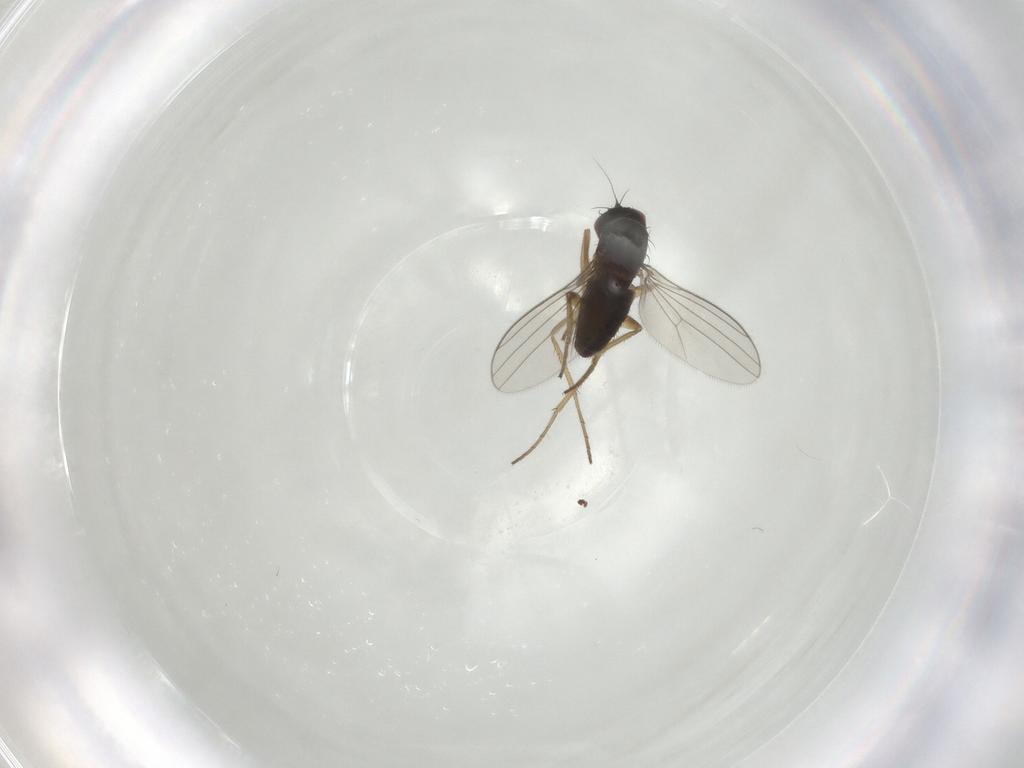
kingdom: Animalia
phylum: Arthropoda
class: Insecta
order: Diptera
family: Dolichopodidae
